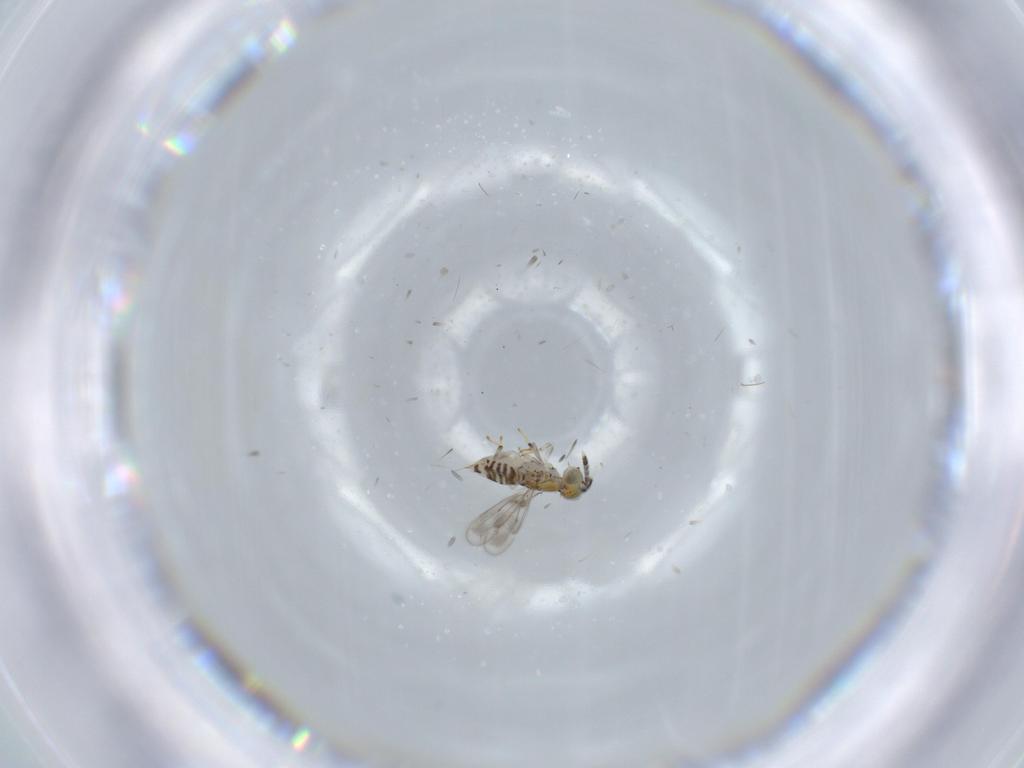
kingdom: Animalia
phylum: Arthropoda
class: Insecta
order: Hymenoptera
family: Aphelinidae
